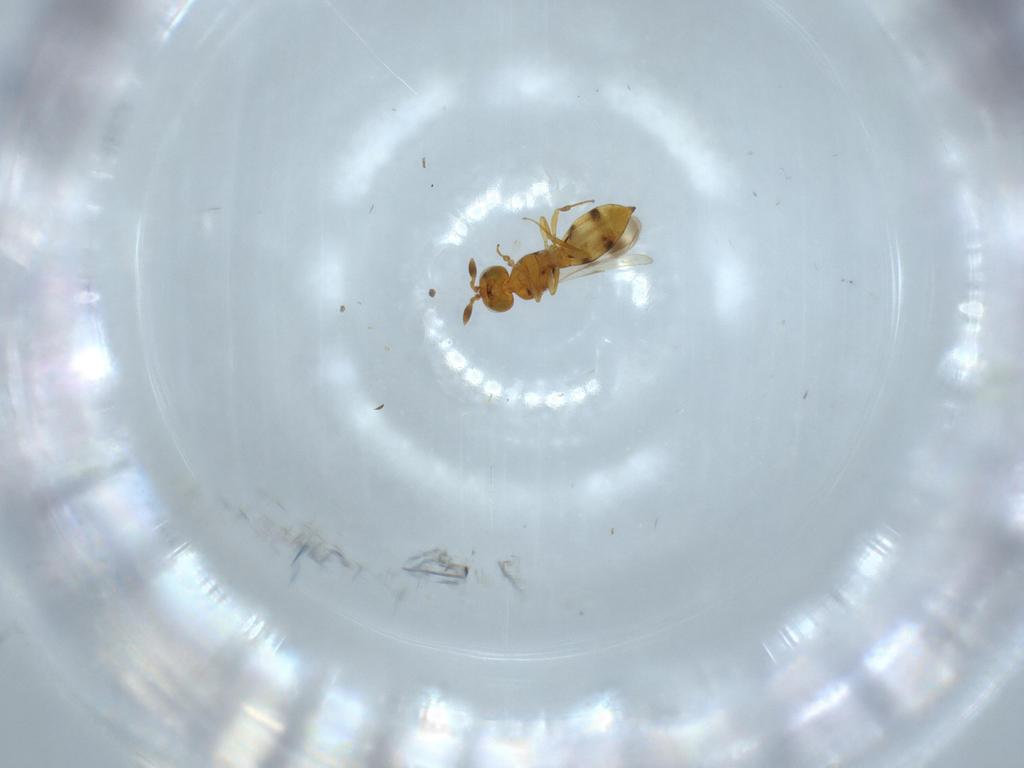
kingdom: Animalia
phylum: Arthropoda
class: Insecta
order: Hymenoptera
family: Scelionidae
